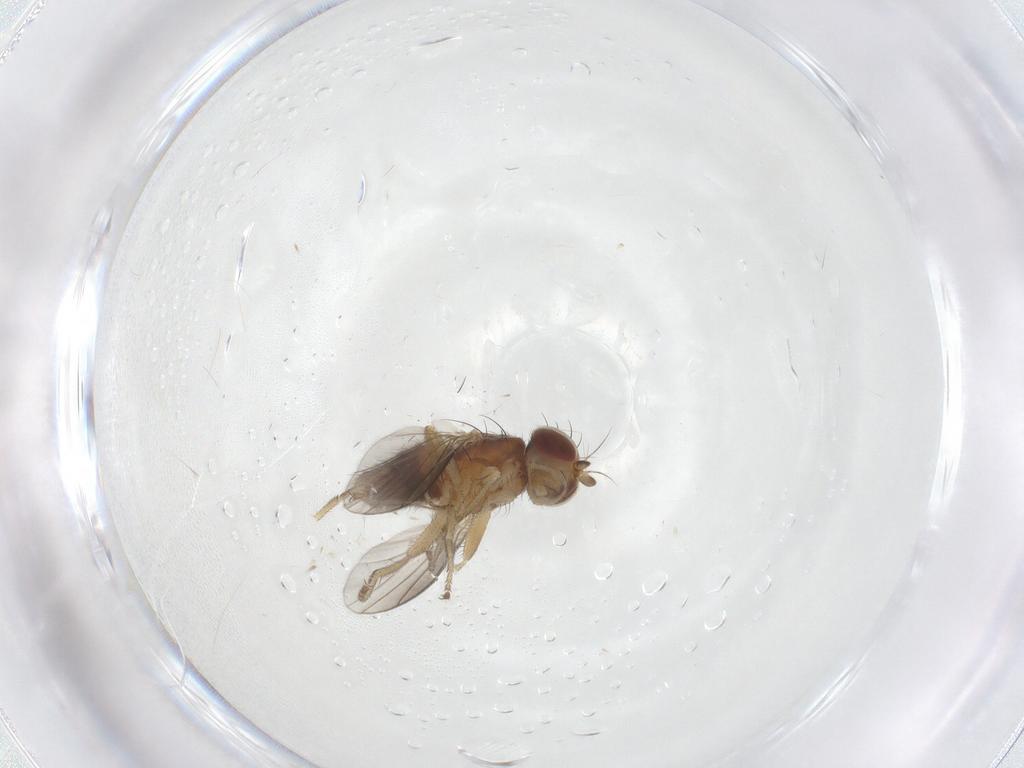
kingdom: Animalia
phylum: Arthropoda
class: Insecta
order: Diptera
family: Heleomyzidae
